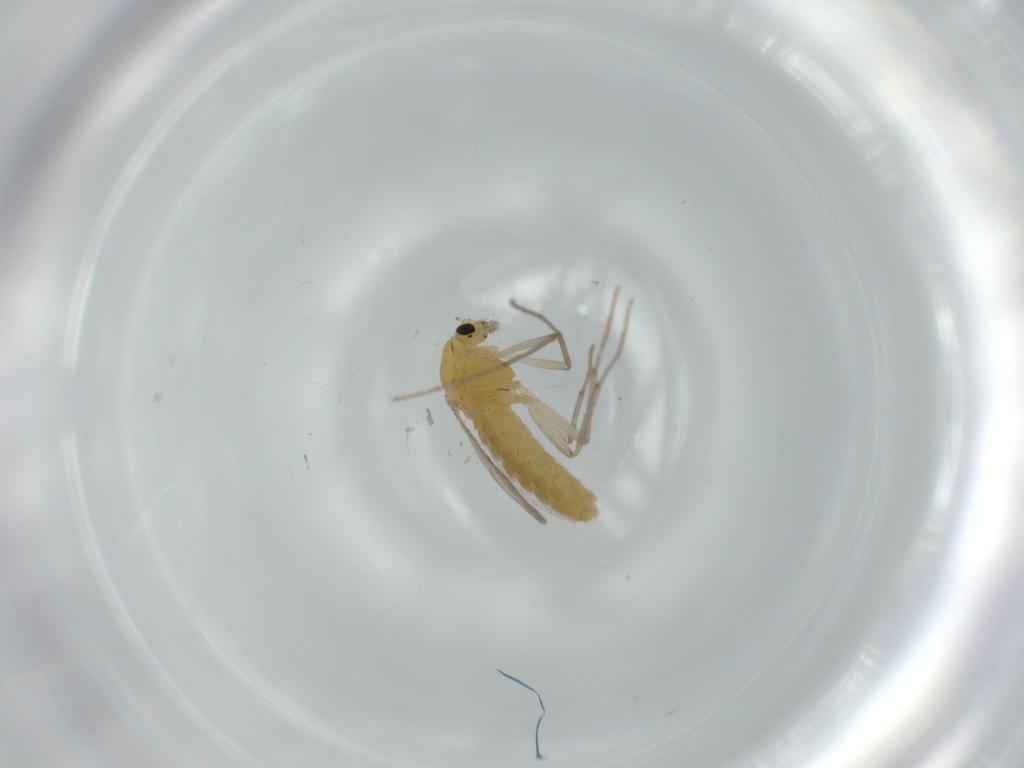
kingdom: Animalia
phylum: Arthropoda
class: Insecta
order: Diptera
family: Chironomidae
